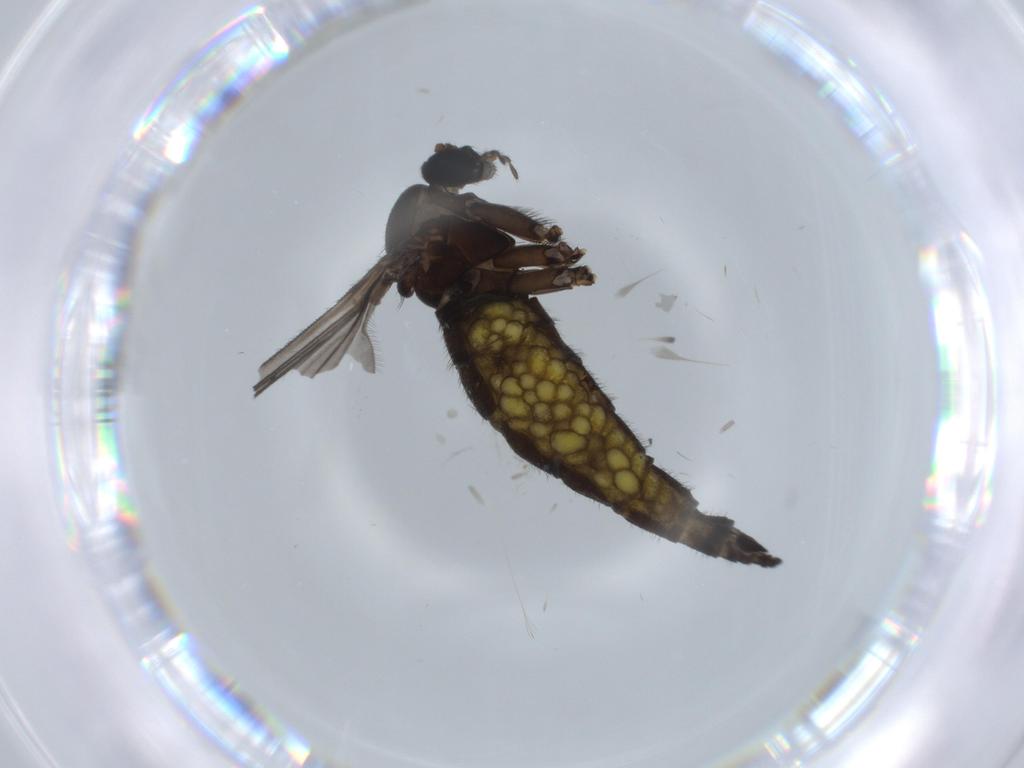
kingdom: Animalia
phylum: Arthropoda
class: Insecta
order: Diptera
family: Sciaridae
